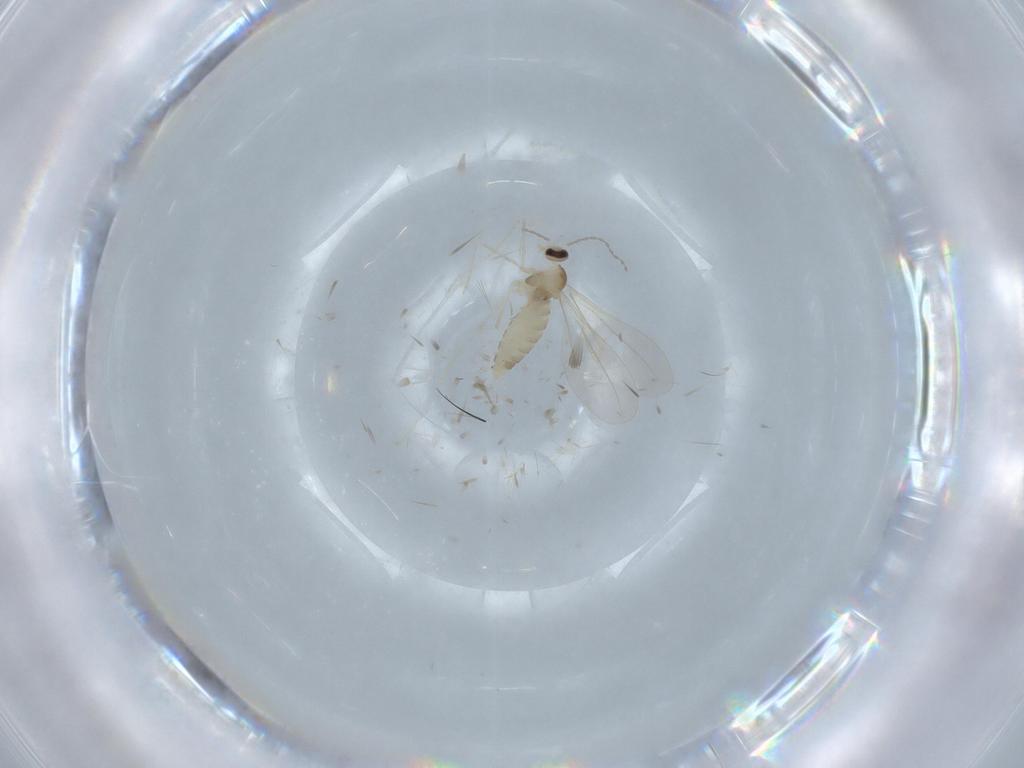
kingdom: Animalia
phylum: Arthropoda
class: Insecta
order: Diptera
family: Cecidomyiidae
